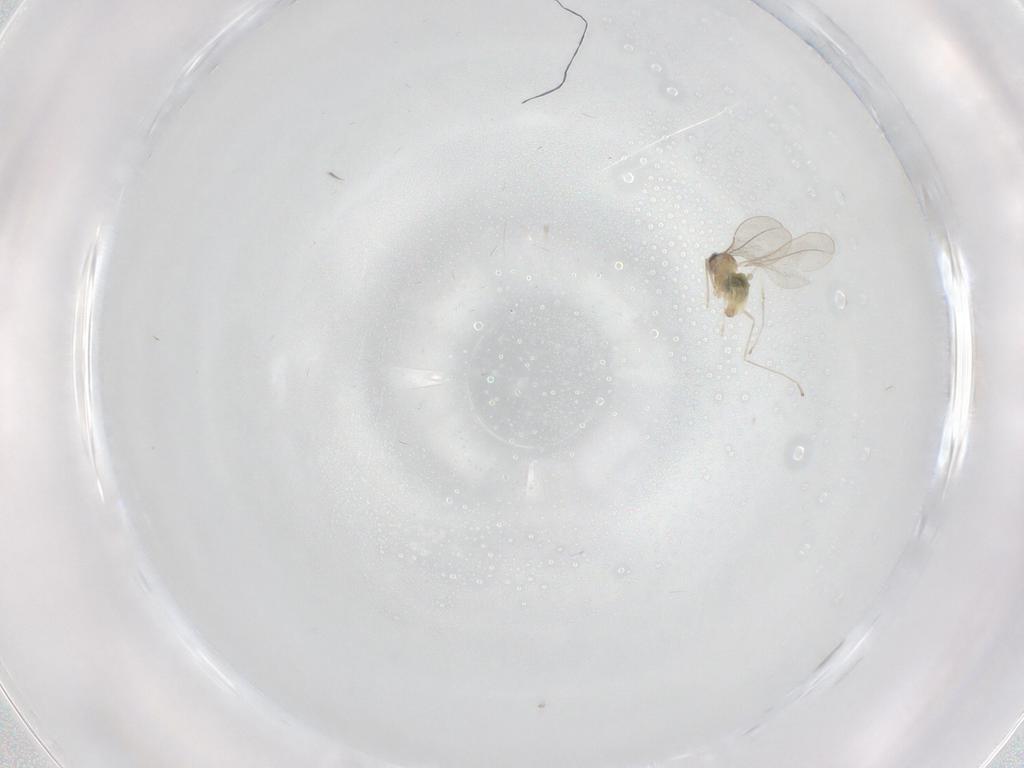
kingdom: Animalia
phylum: Arthropoda
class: Insecta
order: Diptera
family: Cecidomyiidae
